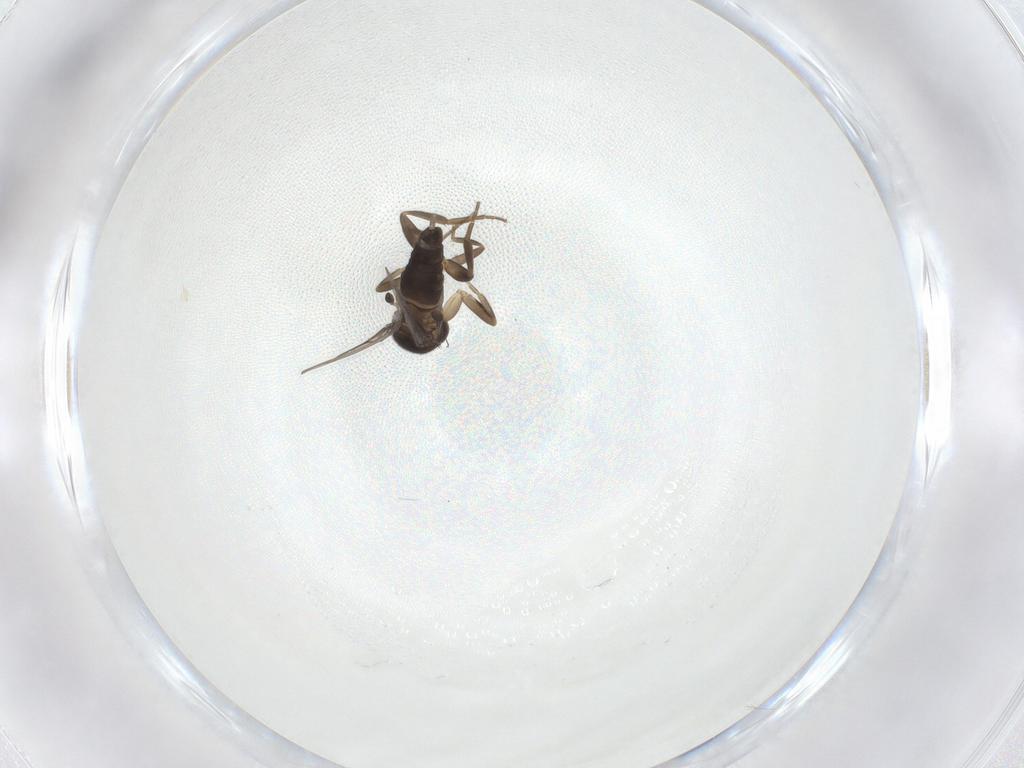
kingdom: Animalia
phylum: Arthropoda
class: Insecta
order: Diptera
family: Phoridae
